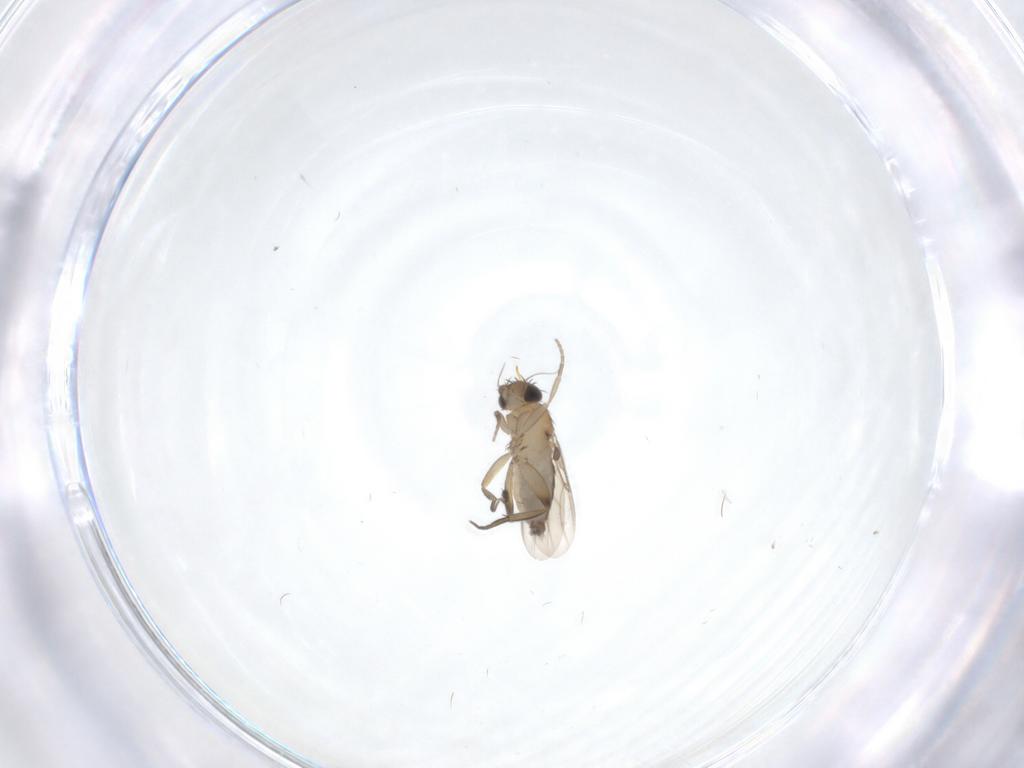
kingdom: Animalia
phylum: Arthropoda
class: Insecta
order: Diptera
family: Phoridae
